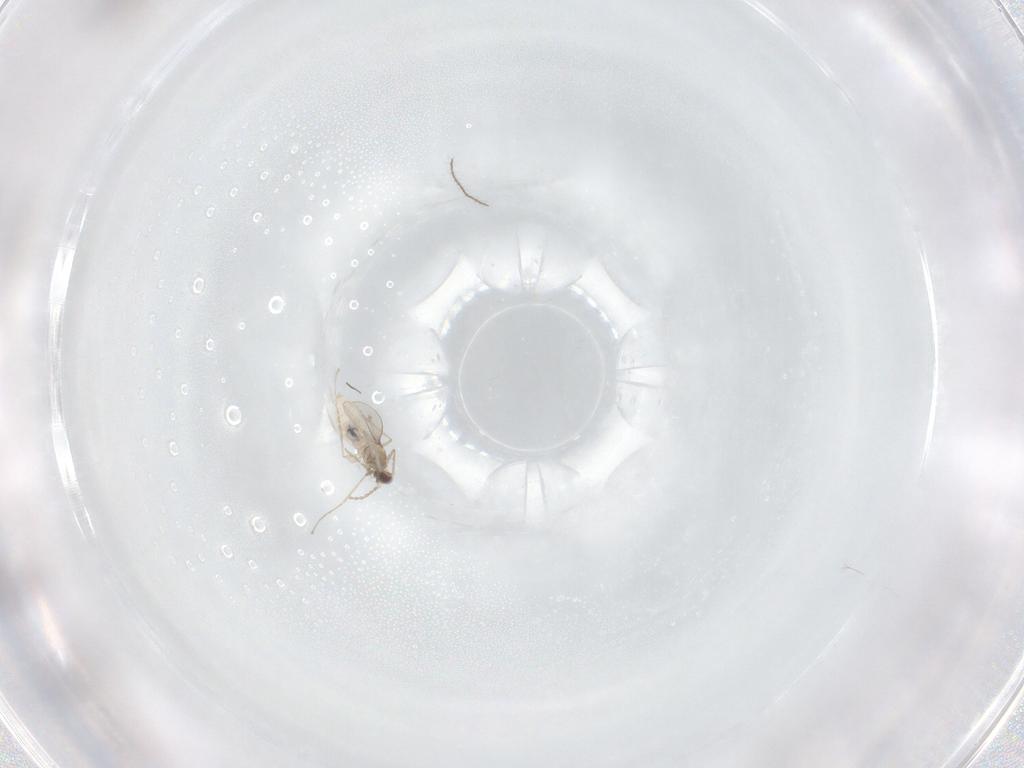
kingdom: Animalia
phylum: Arthropoda
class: Insecta
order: Diptera
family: Cecidomyiidae
